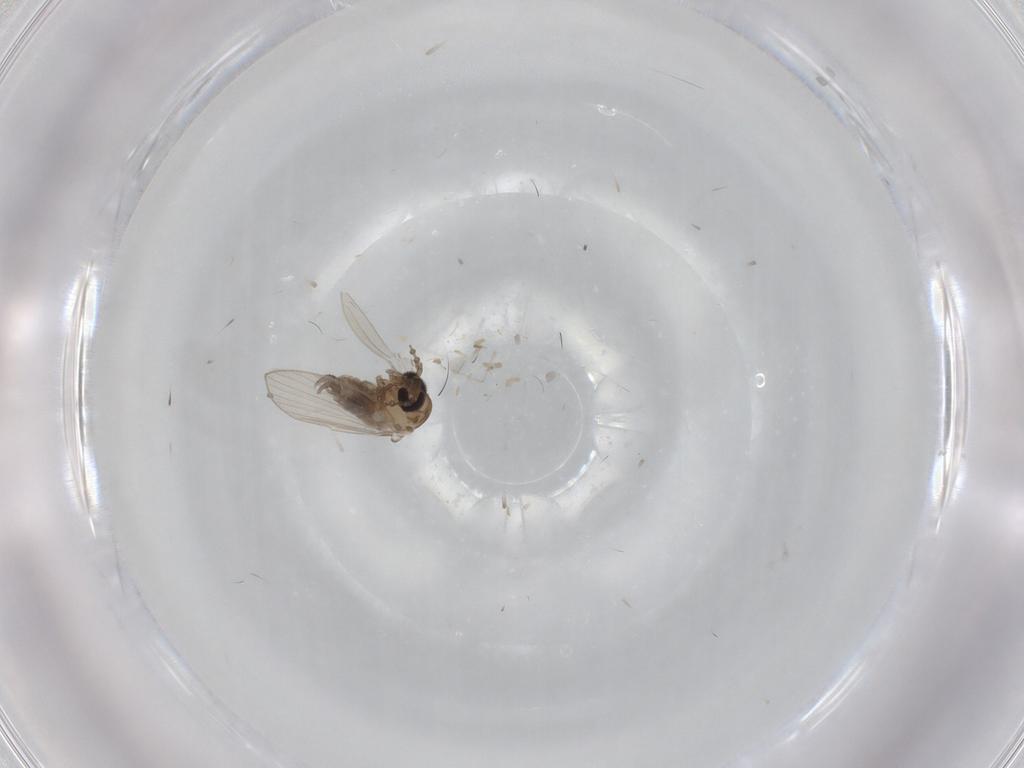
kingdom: Animalia
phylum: Arthropoda
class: Insecta
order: Diptera
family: Psychodidae
